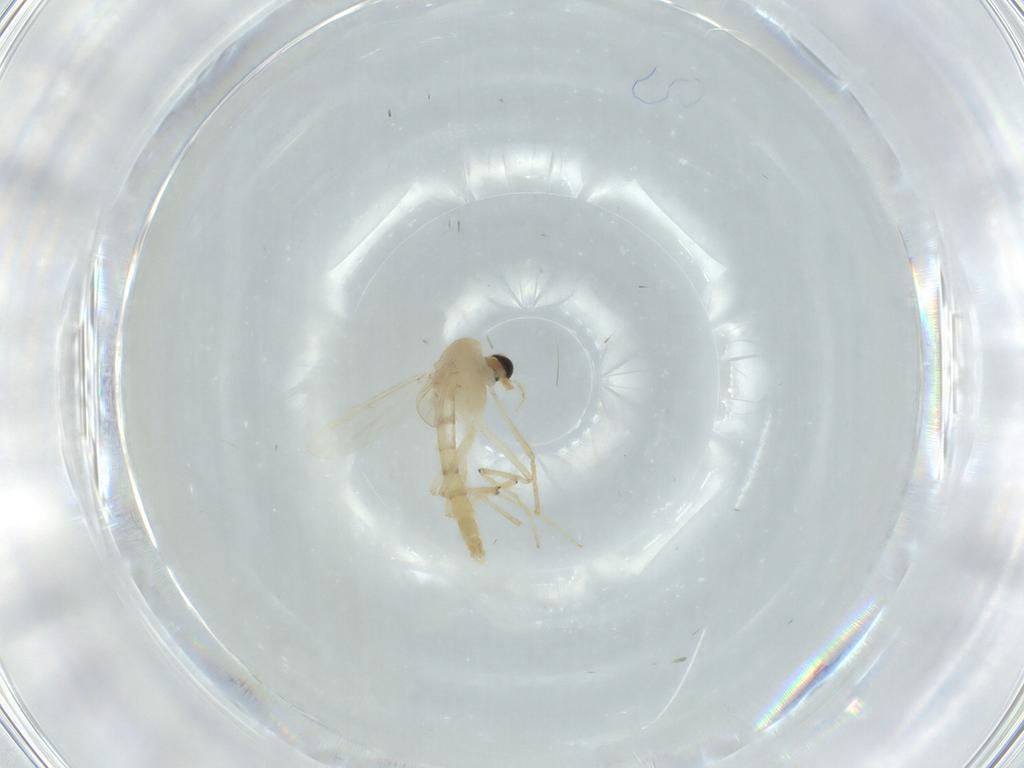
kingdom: Animalia
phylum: Arthropoda
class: Insecta
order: Diptera
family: Chironomidae
